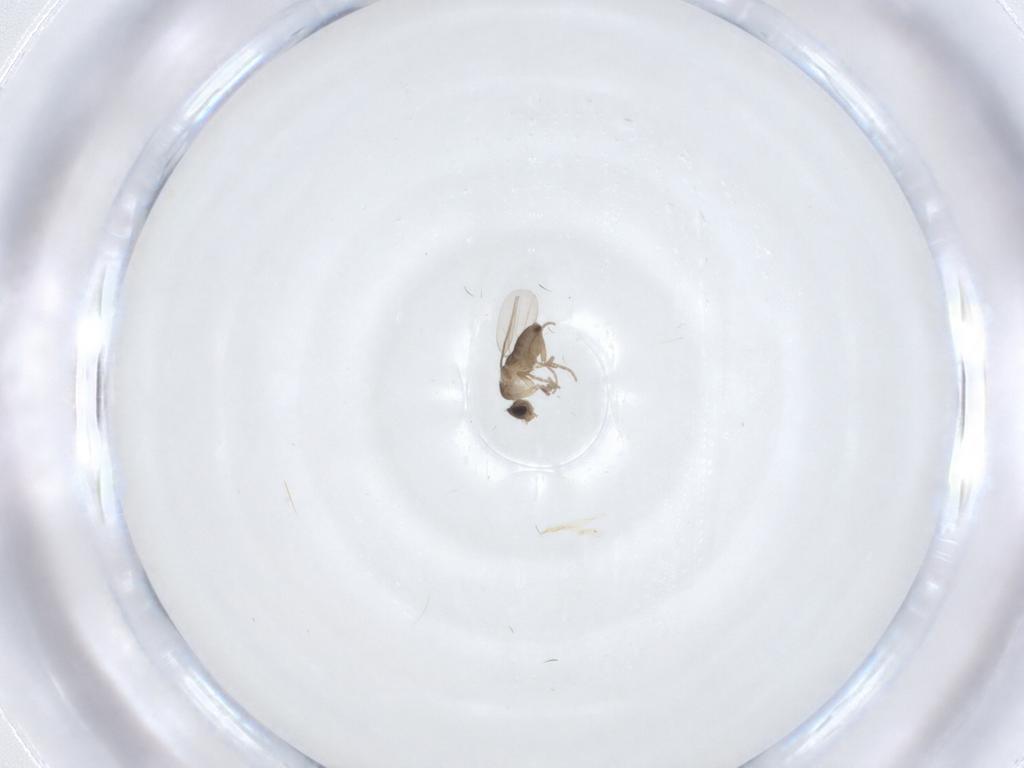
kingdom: Animalia
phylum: Arthropoda
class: Insecta
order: Diptera
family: Phoridae
